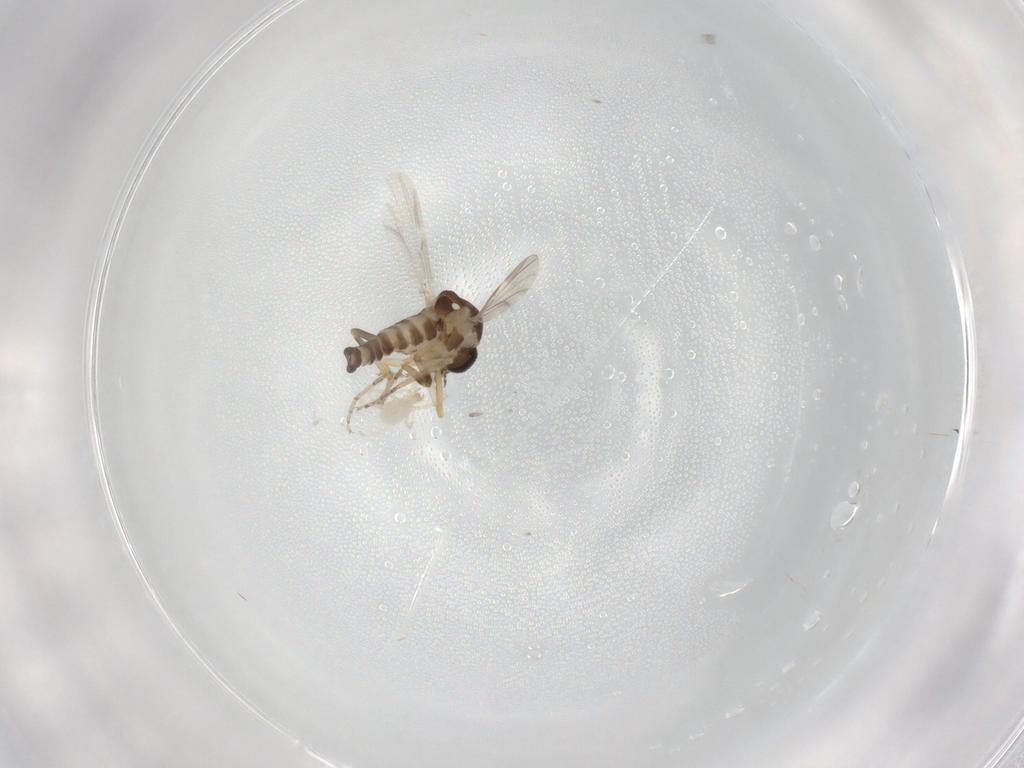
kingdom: Animalia
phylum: Arthropoda
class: Insecta
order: Diptera
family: Ceratopogonidae
